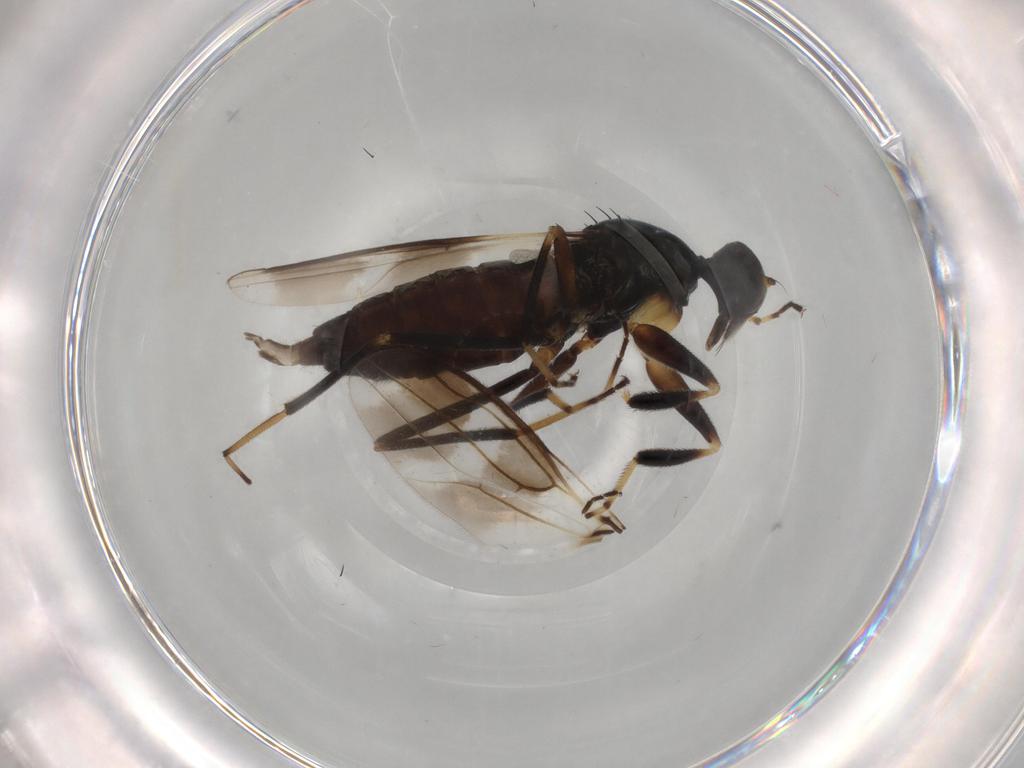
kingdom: Animalia
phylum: Arthropoda
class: Insecta
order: Diptera
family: Hybotidae
